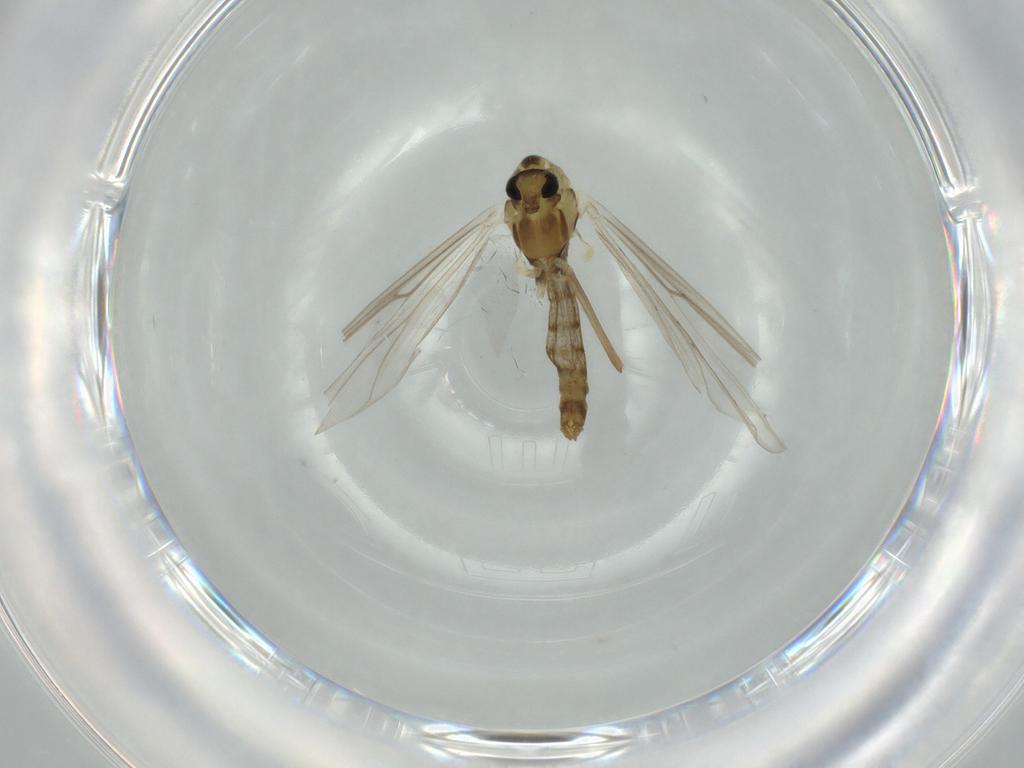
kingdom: Animalia
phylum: Arthropoda
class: Insecta
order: Diptera
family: Chironomidae
